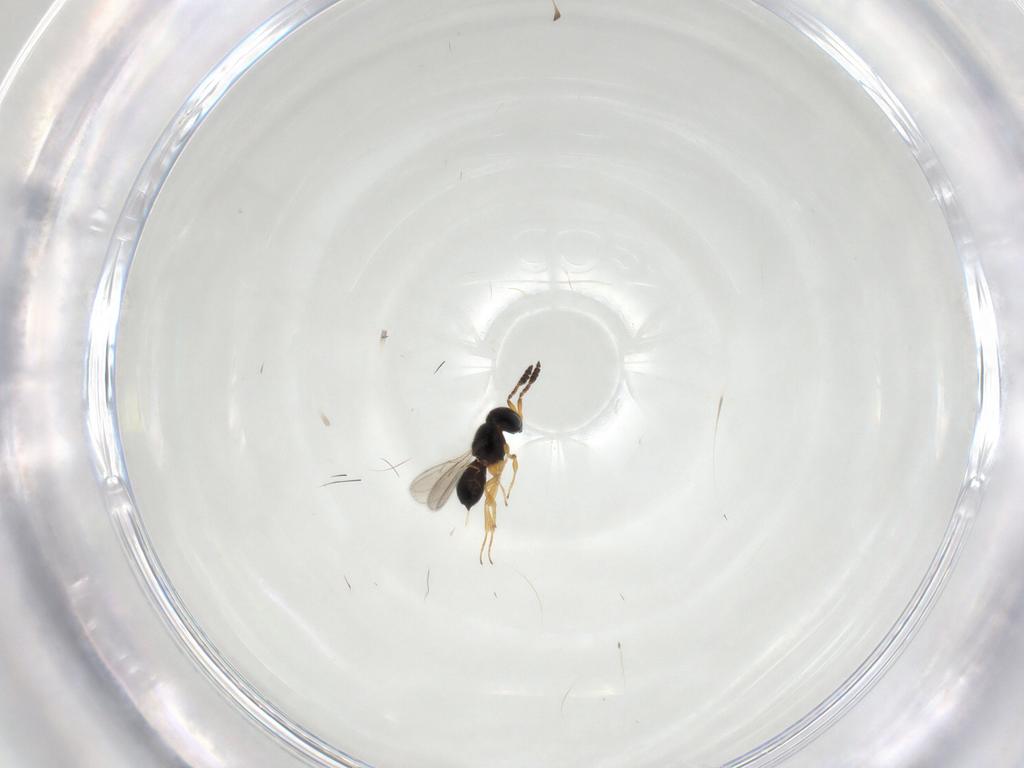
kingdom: Animalia
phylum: Arthropoda
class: Insecta
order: Hymenoptera
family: Scelionidae
